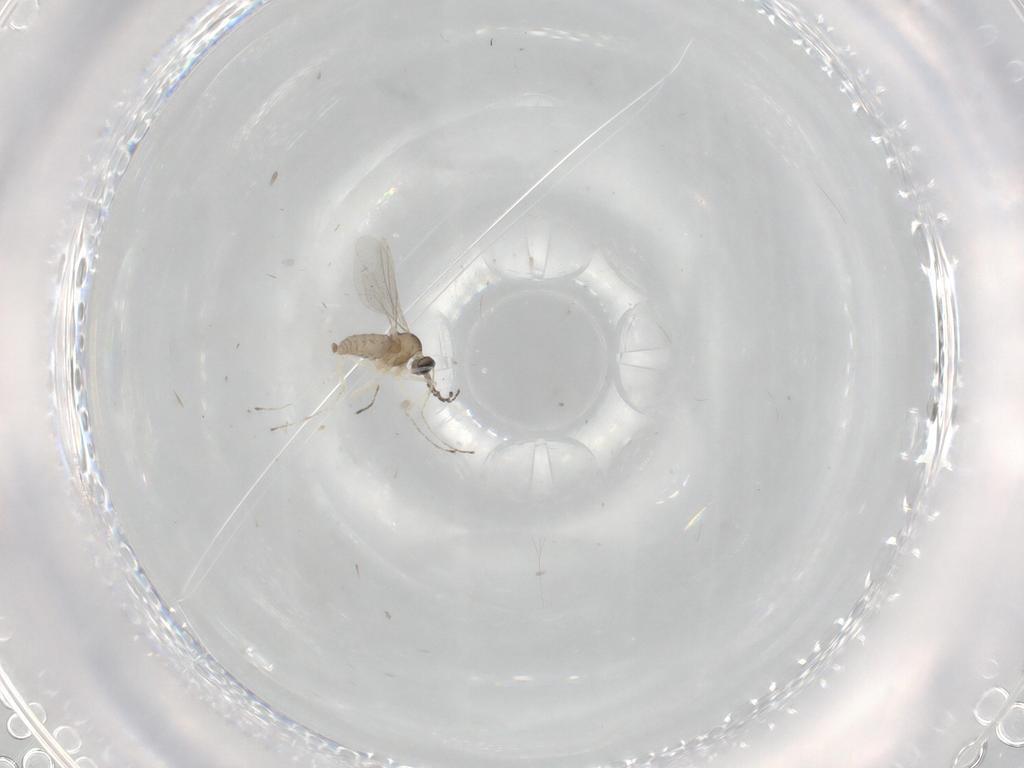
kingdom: Animalia
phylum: Arthropoda
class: Insecta
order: Diptera
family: Cecidomyiidae
